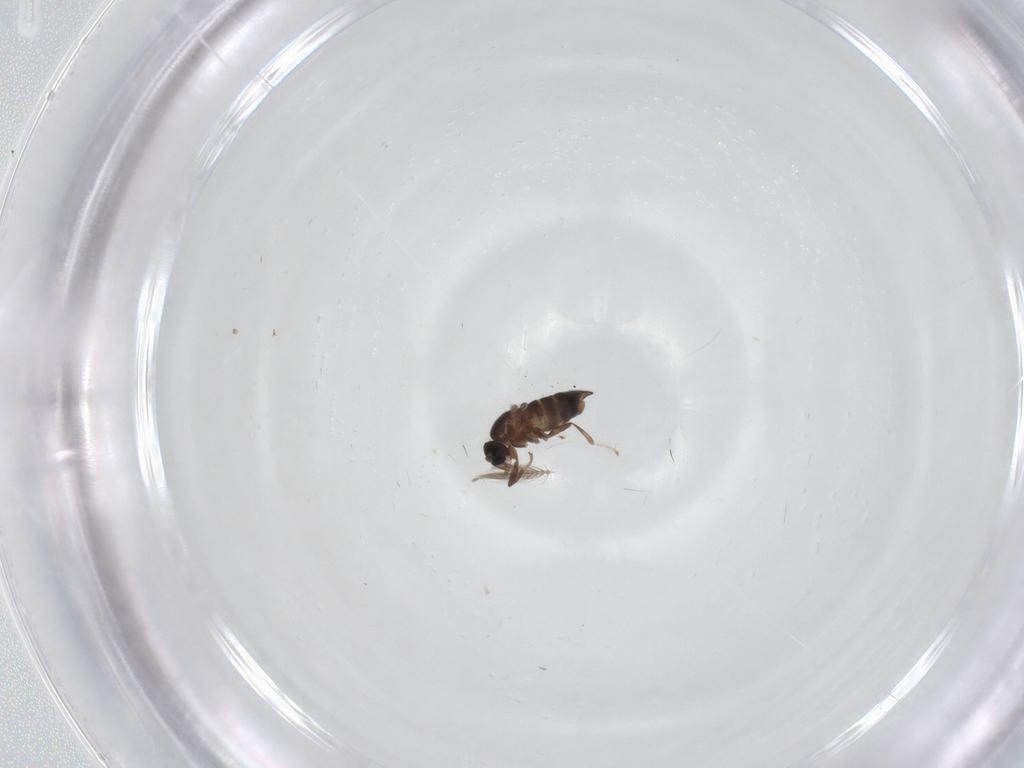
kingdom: Animalia
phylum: Arthropoda
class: Insecta
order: Diptera
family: Scatopsidae
